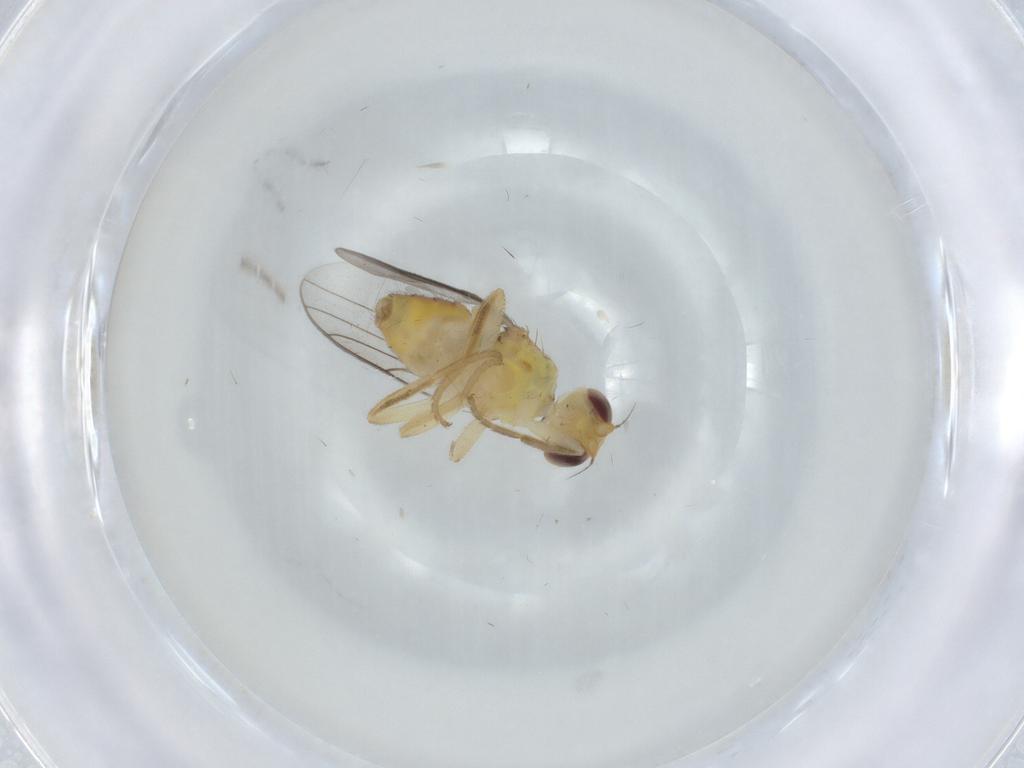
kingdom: Animalia
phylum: Arthropoda
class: Insecta
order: Diptera
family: Chloropidae
